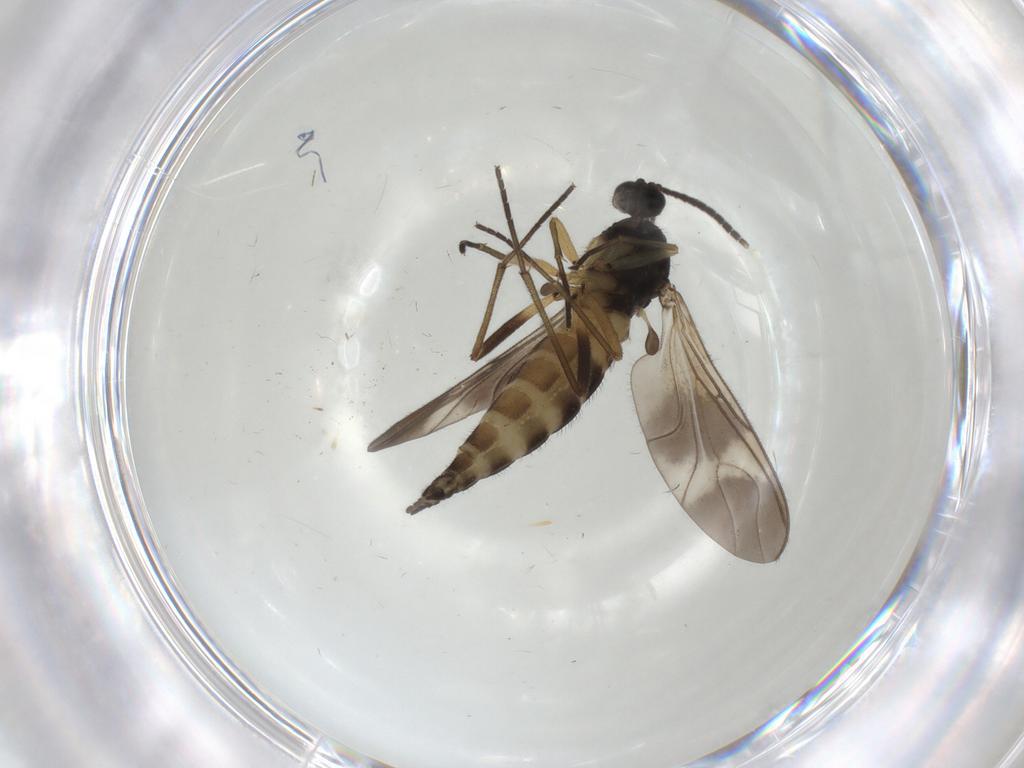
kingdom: Animalia
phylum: Arthropoda
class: Insecta
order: Diptera
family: Sciaridae
